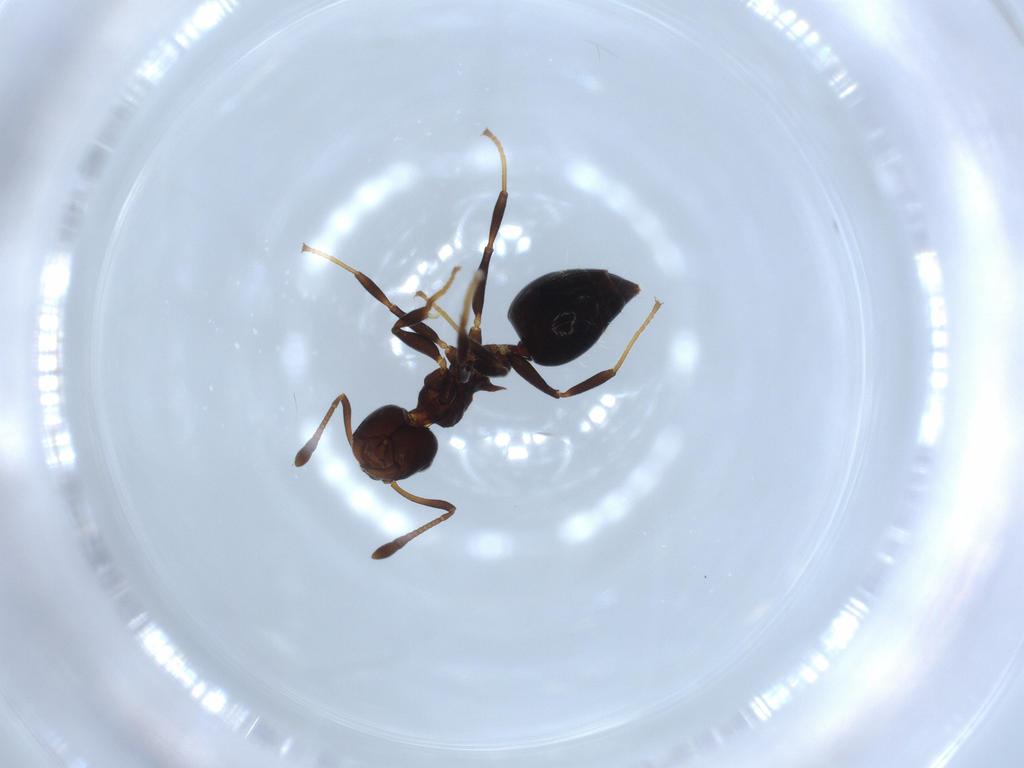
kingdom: Animalia
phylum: Arthropoda
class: Insecta
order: Hymenoptera
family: Formicidae
